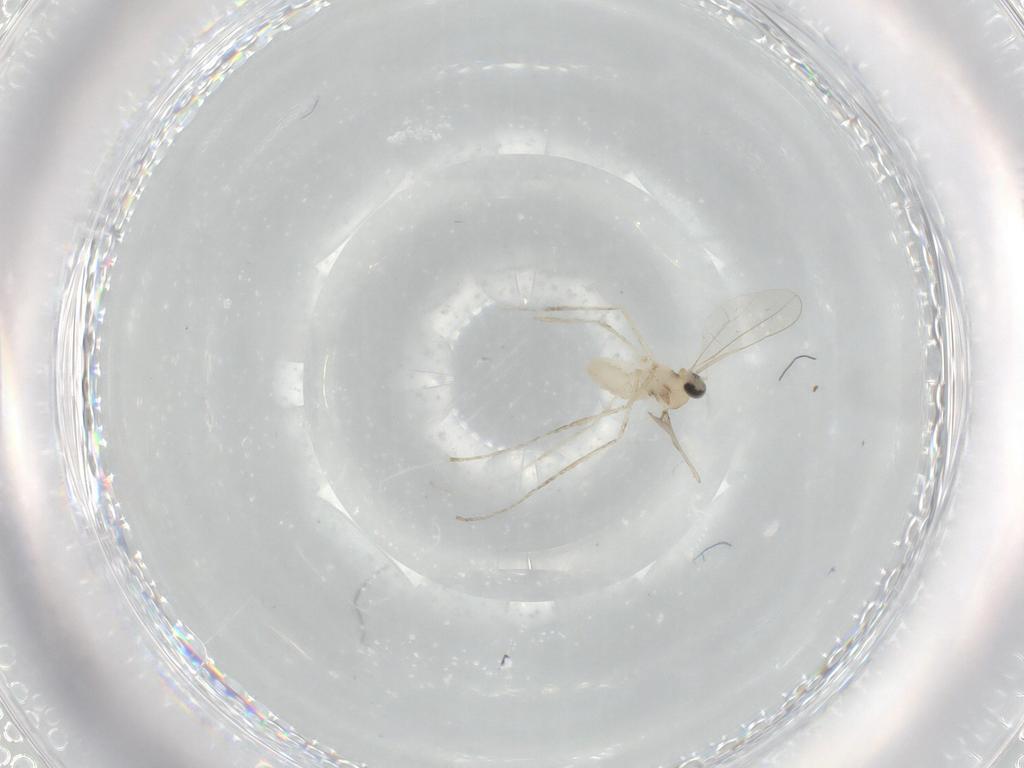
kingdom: Animalia
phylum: Arthropoda
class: Insecta
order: Diptera
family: Cecidomyiidae
